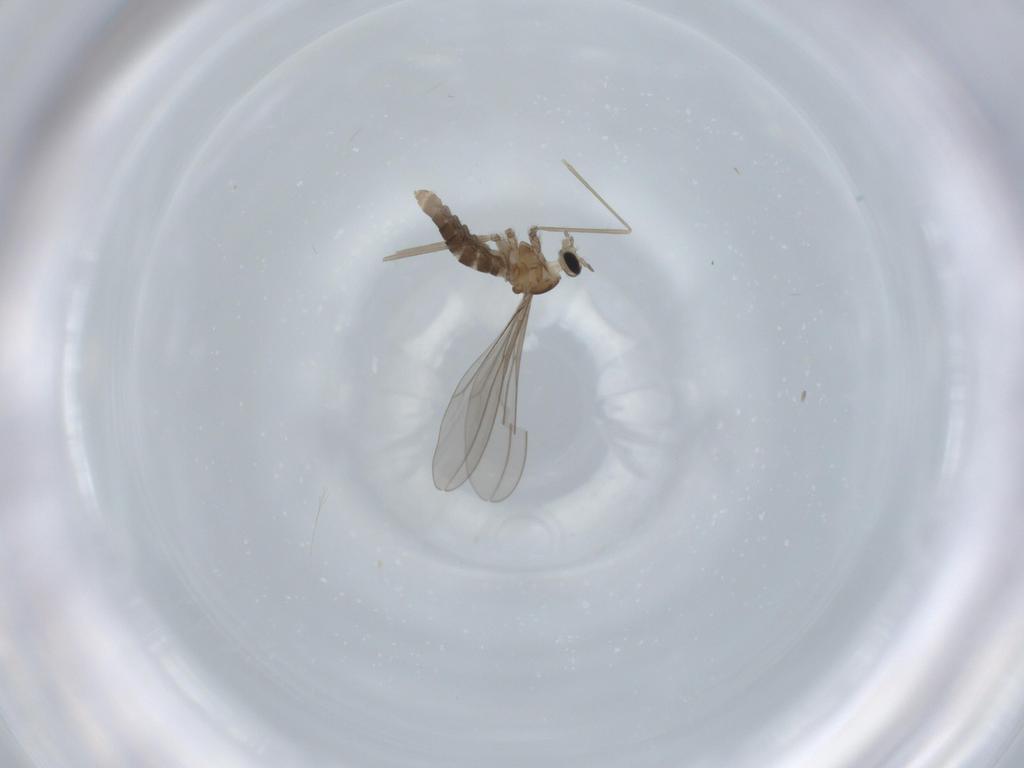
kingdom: Animalia
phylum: Arthropoda
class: Insecta
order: Diptera
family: Cecidomyiidae
